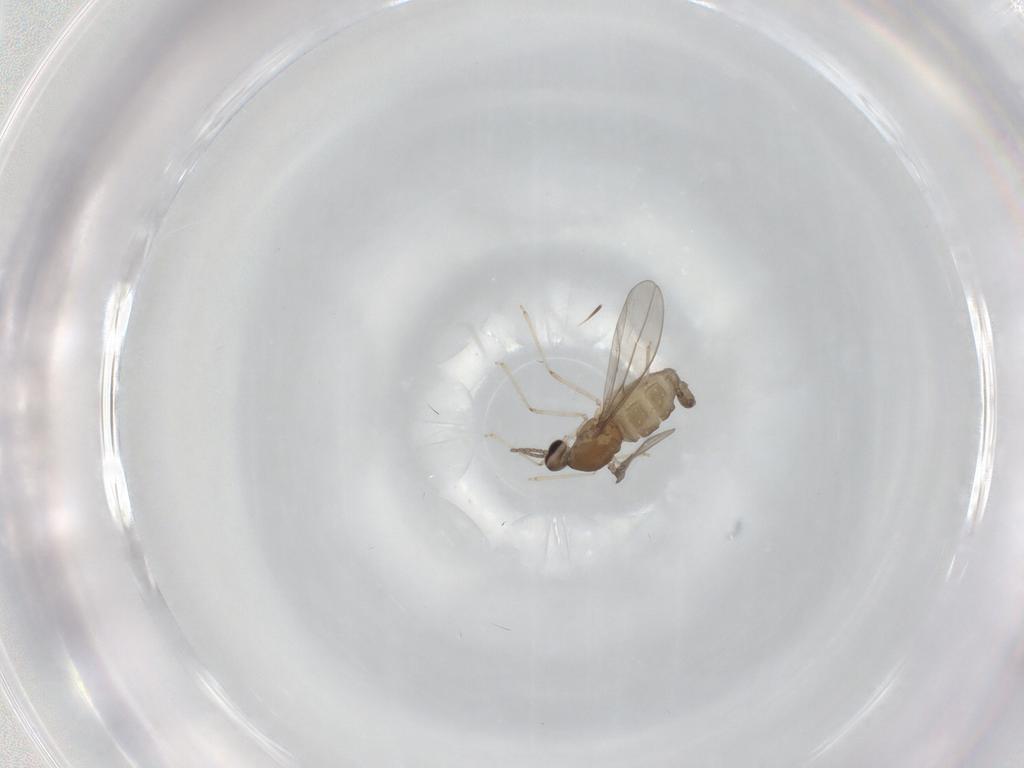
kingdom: Animalia
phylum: Arthropoda
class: Insecta
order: Diptera
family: Cecidomyiidae
